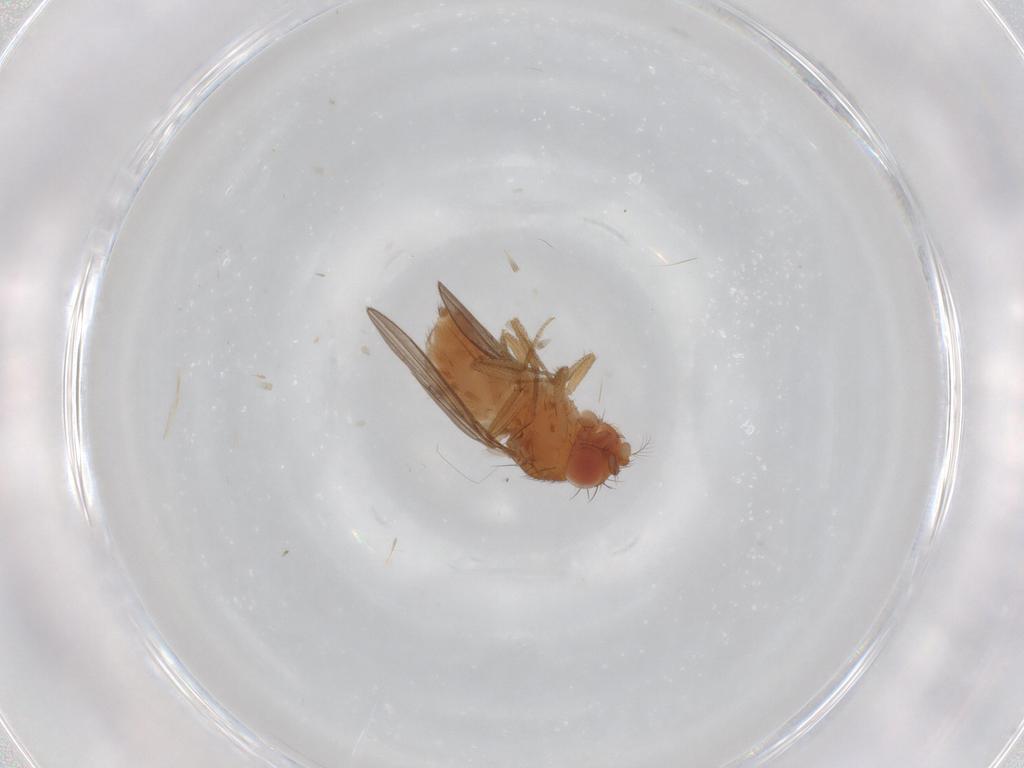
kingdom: Animalia
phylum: Arthropoda
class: Insecta
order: Diptera
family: Drosophilidae
